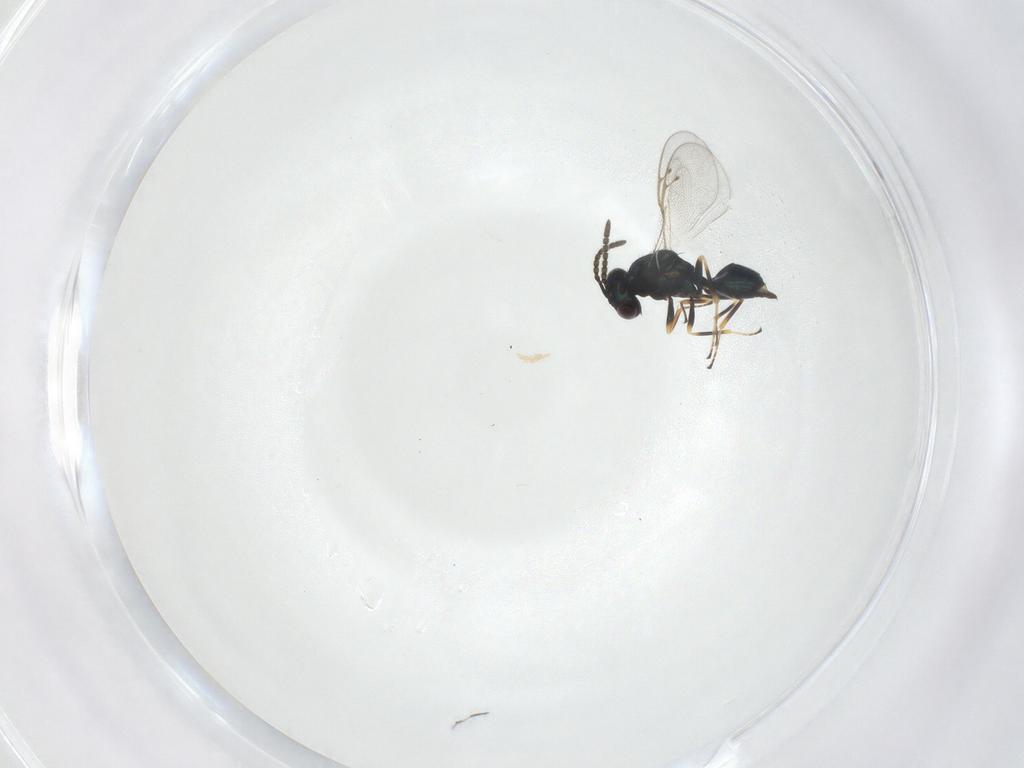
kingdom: Animalia
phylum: Arthropoda
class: Insecta
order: Hymenoptera
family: Pteromalidae
